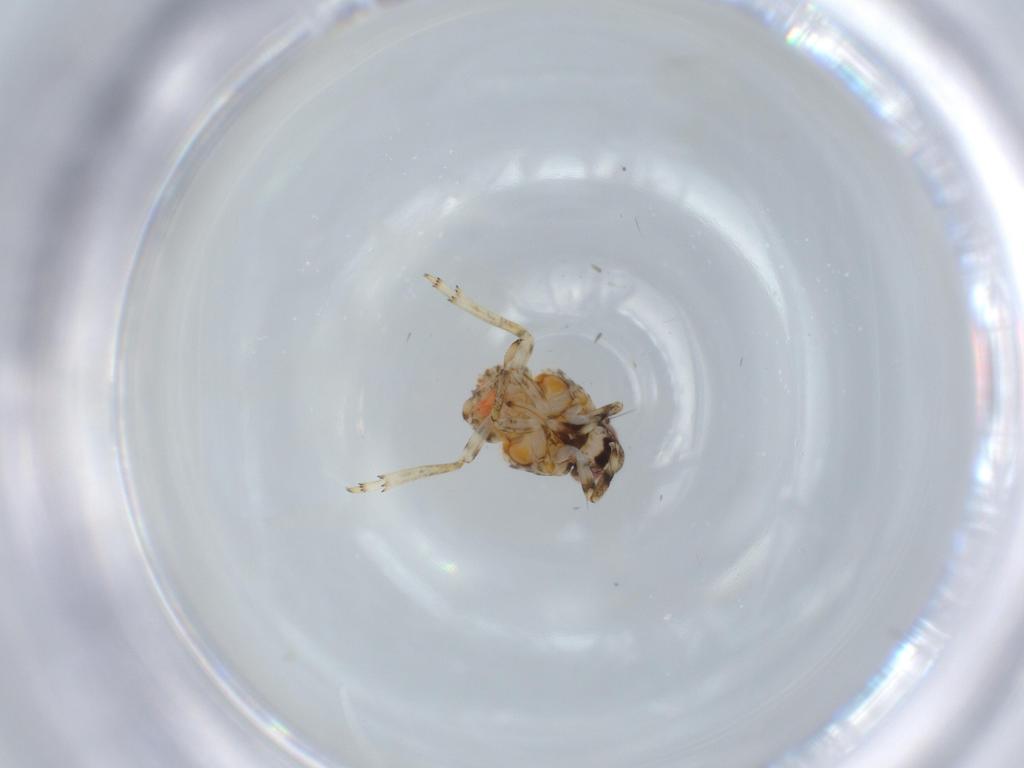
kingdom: Animalia
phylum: Arthropoda
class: Insecta
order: Hemiptera
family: Issidae
